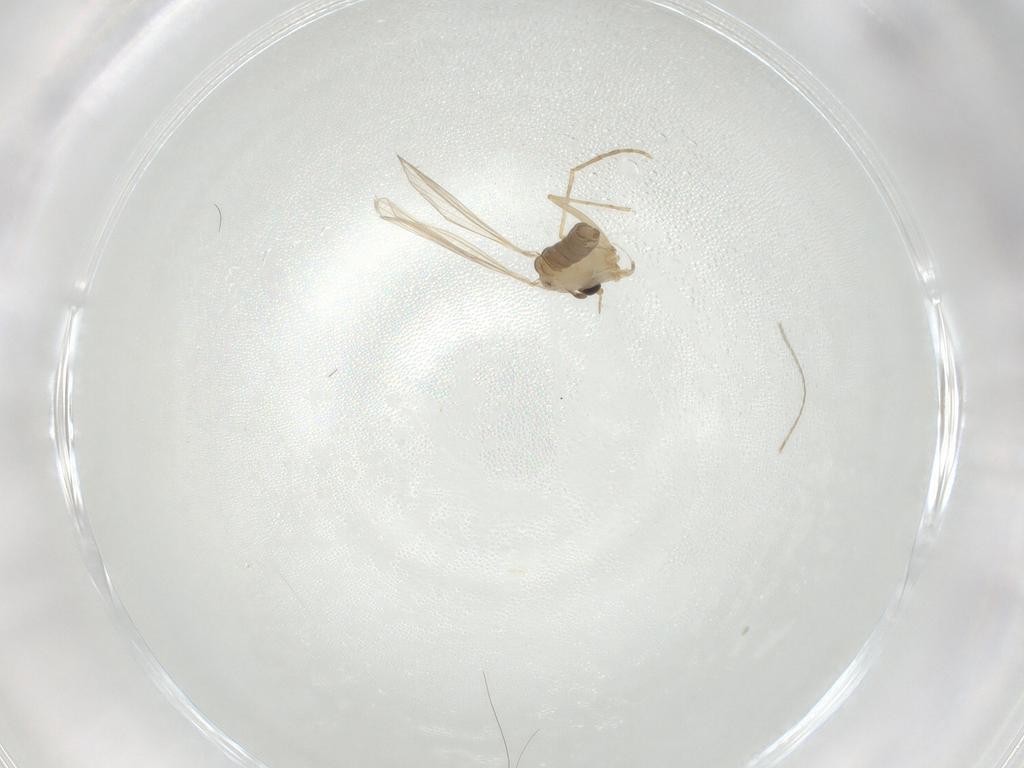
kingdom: Animalia
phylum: Arthropoda
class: Insecta
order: Diptera
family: Psychodidae
